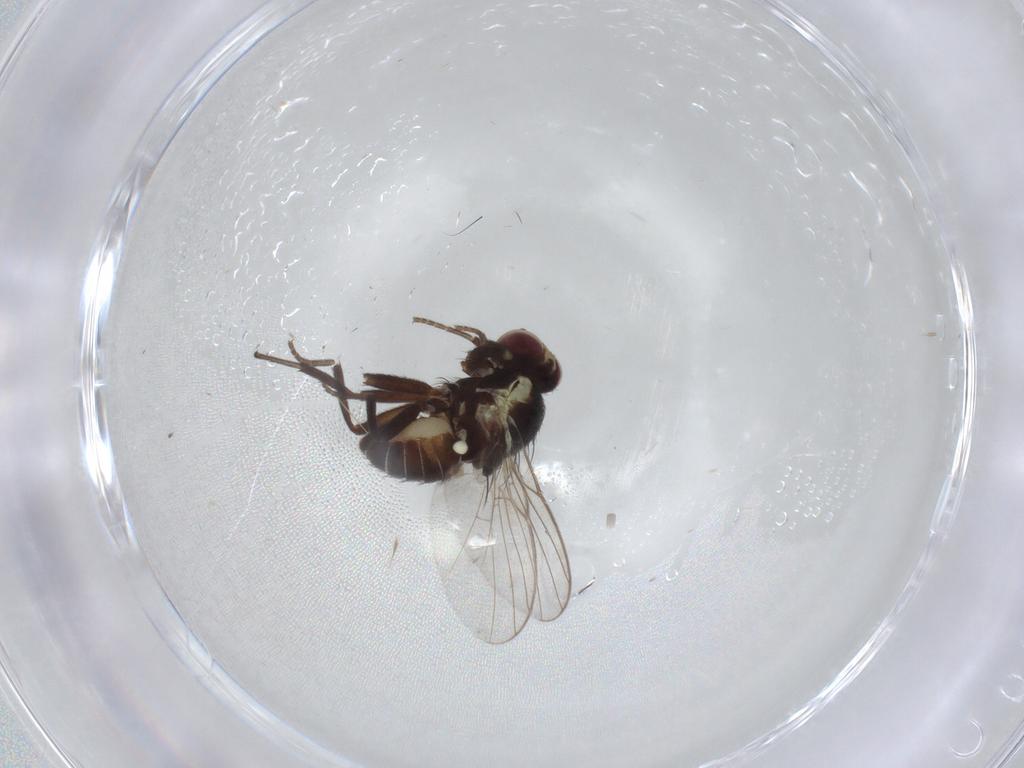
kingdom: Animalia
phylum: Arthropoda
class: Insecta
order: Diptera
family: Agromyzidae
